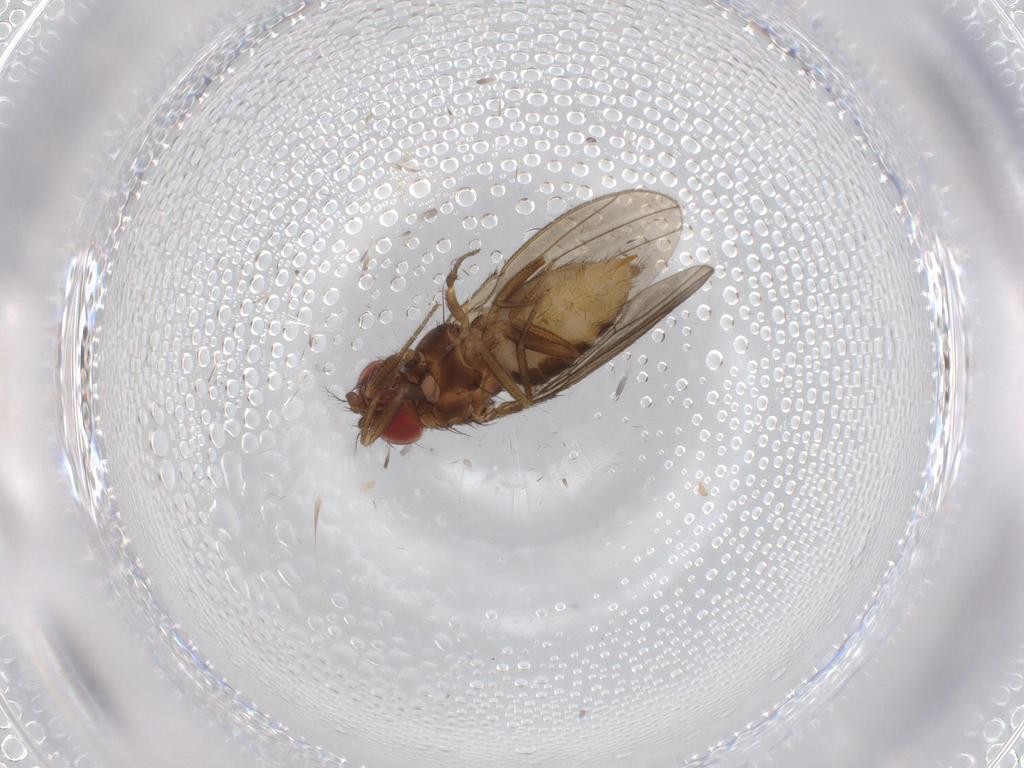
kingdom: Animalia
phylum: Arthropoda
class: Insecta
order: Diptera
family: Drosophilidae
